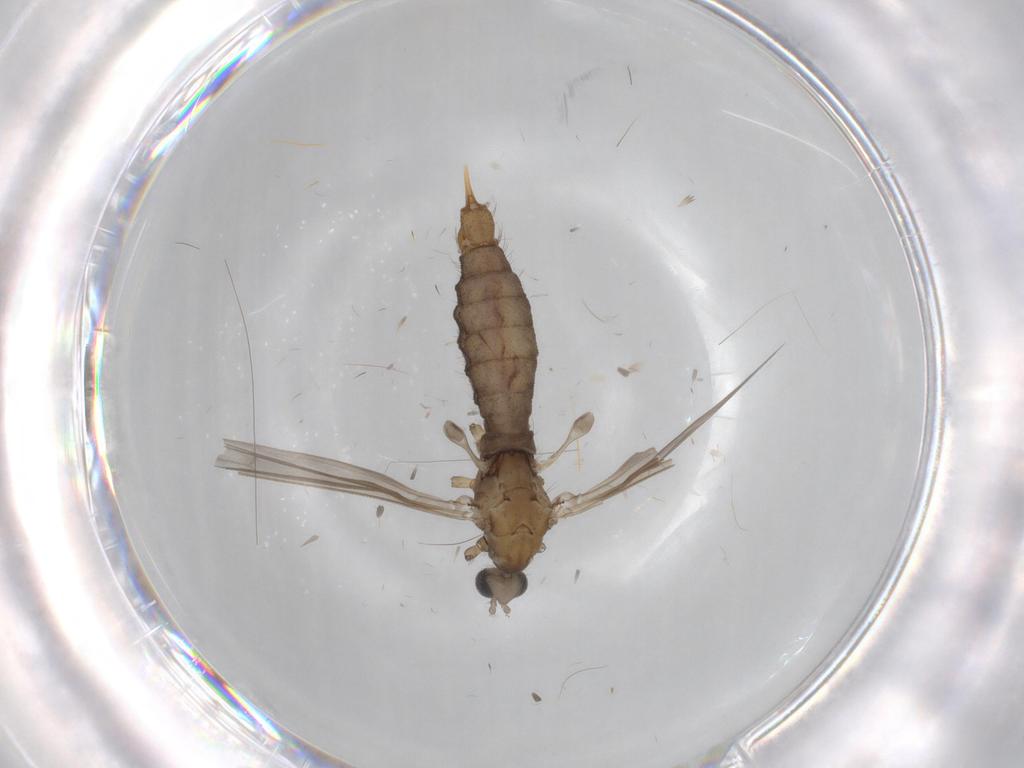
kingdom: Animalia
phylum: Arthropoda
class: Insecta
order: Diptera
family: Limoniidae
